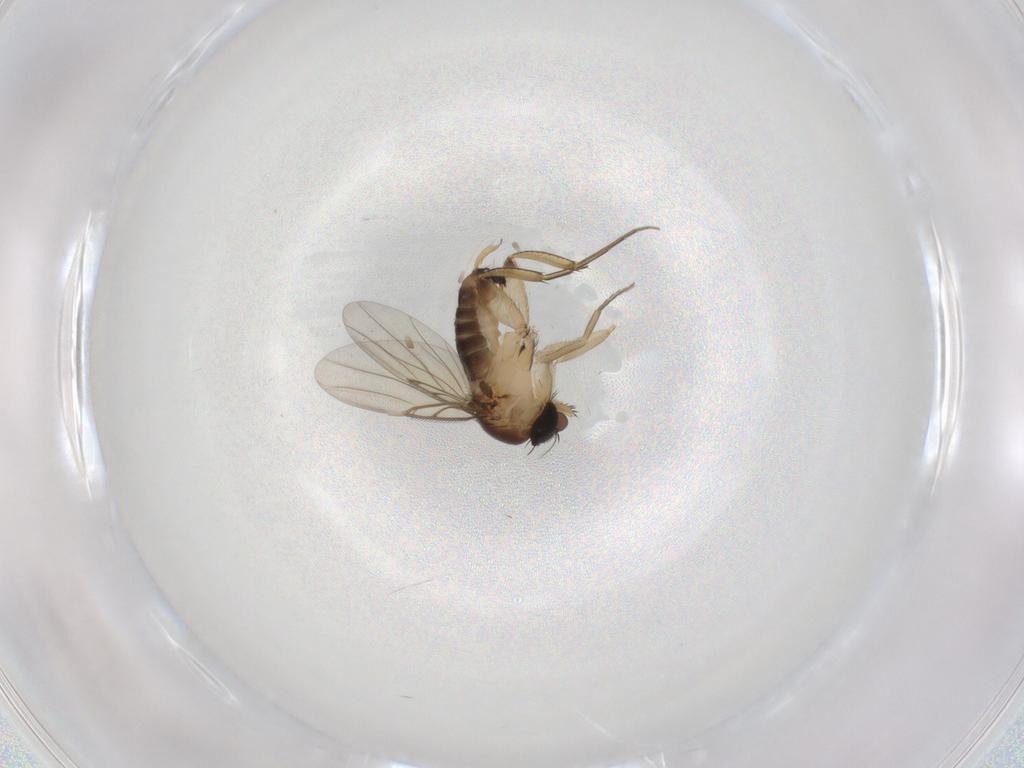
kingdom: Animalia
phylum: Arthropoda
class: Insecta
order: Diptera
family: Phoridae
